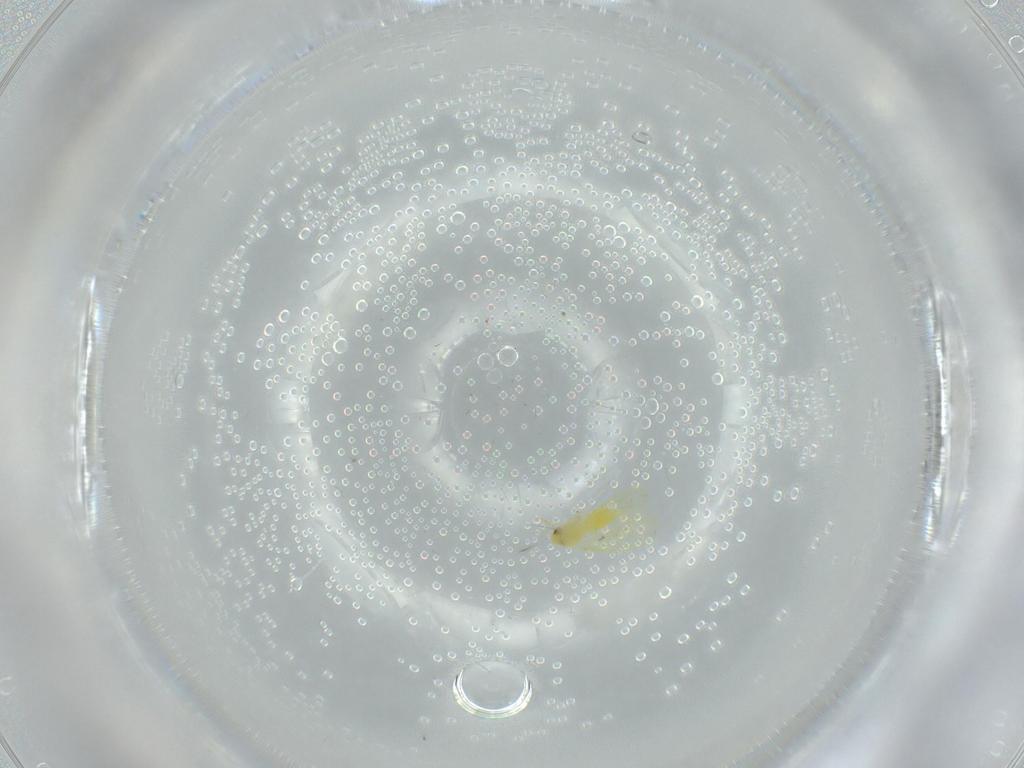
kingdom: Animalia
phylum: Arthropoda
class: Insecta
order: Hemiptera
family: Aleyrodidae
